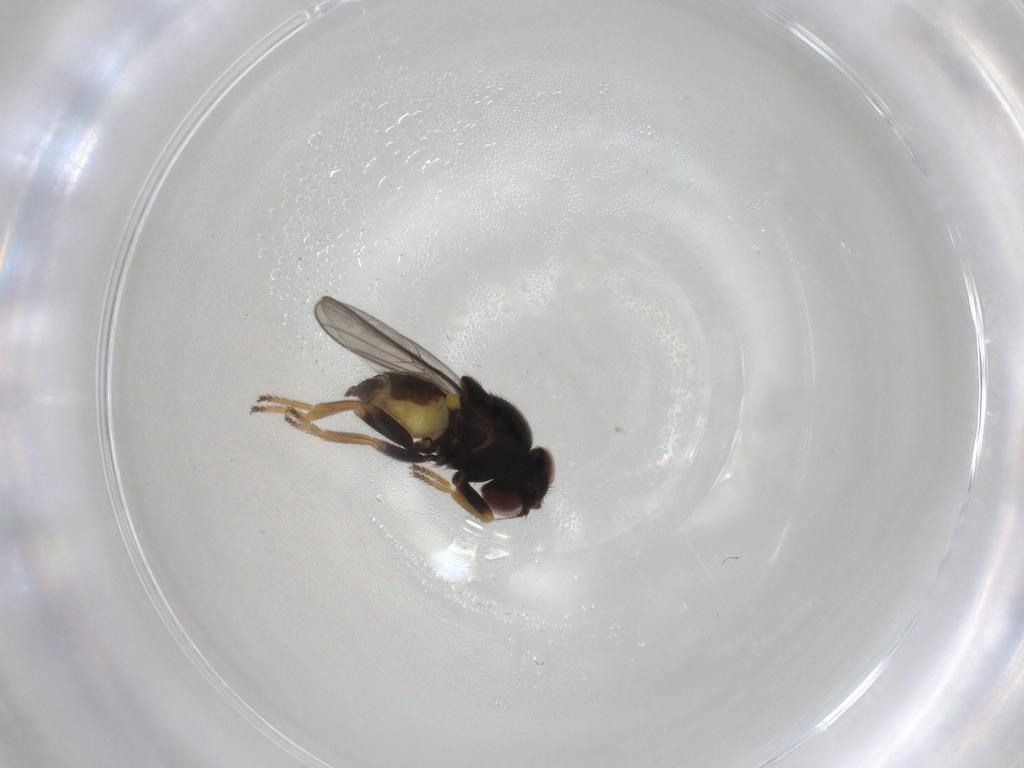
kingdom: Animalia
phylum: Arthropoda
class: Insecta
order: Diptera
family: Chloropidae
